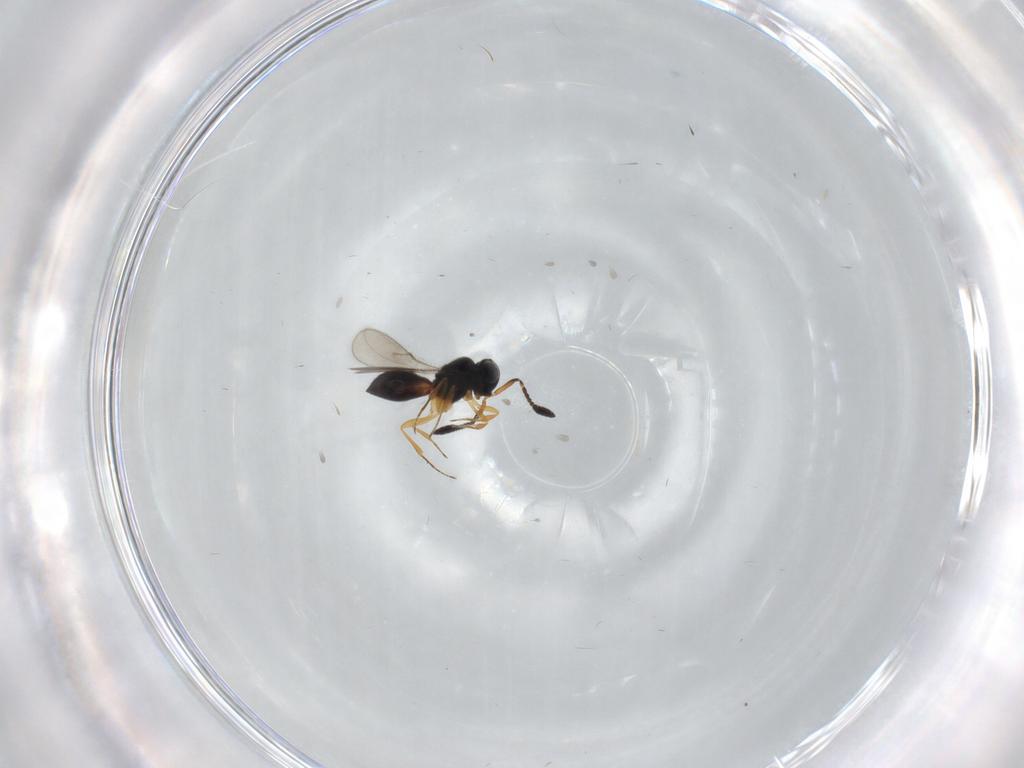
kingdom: Animalia
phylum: Arthropoda
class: Insecta
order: Hymenoptera
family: Scelionidae
